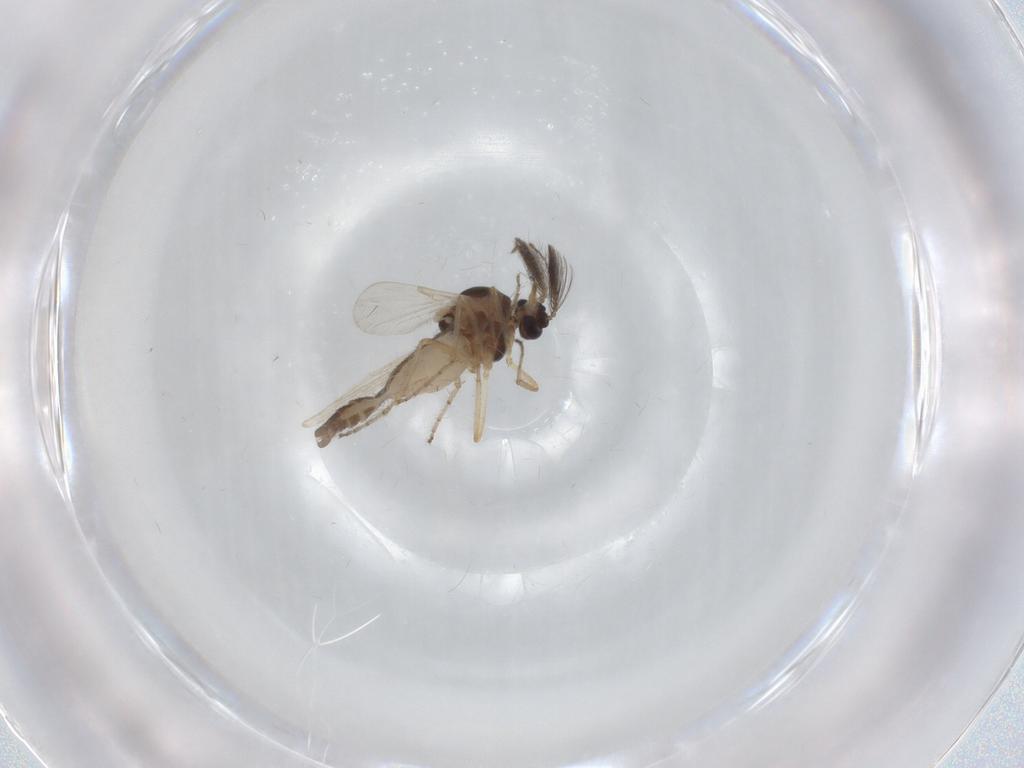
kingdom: Animalia
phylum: Arthropoda
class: Insecta
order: Diptera
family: Ceratopogonidae
